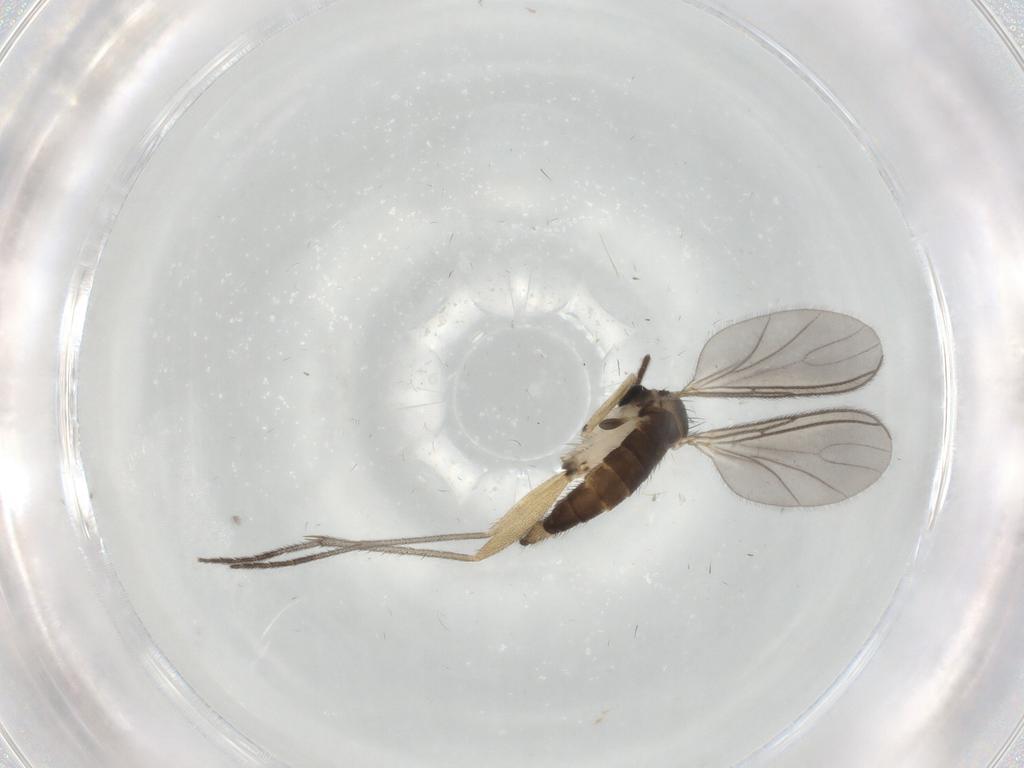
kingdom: Animalia
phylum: Arthropoda
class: Insecta
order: Diptera
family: Sciaridae
